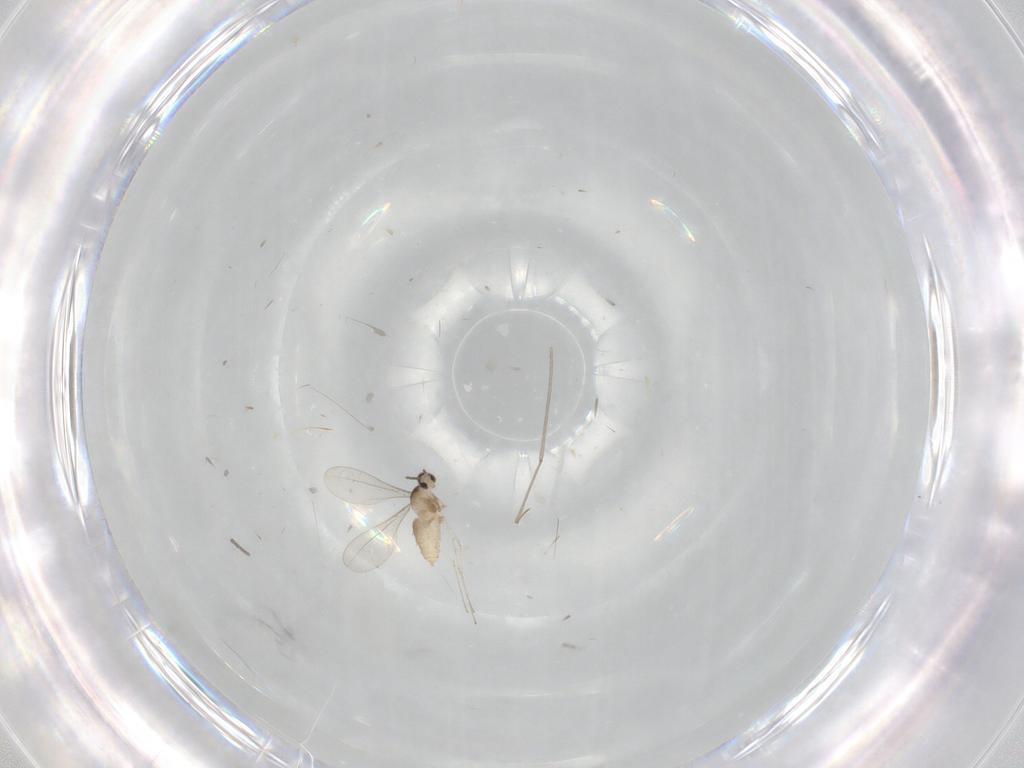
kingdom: Animalia
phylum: Arthropoda
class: Insecta
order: Diptera
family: Cecidomyiidae
